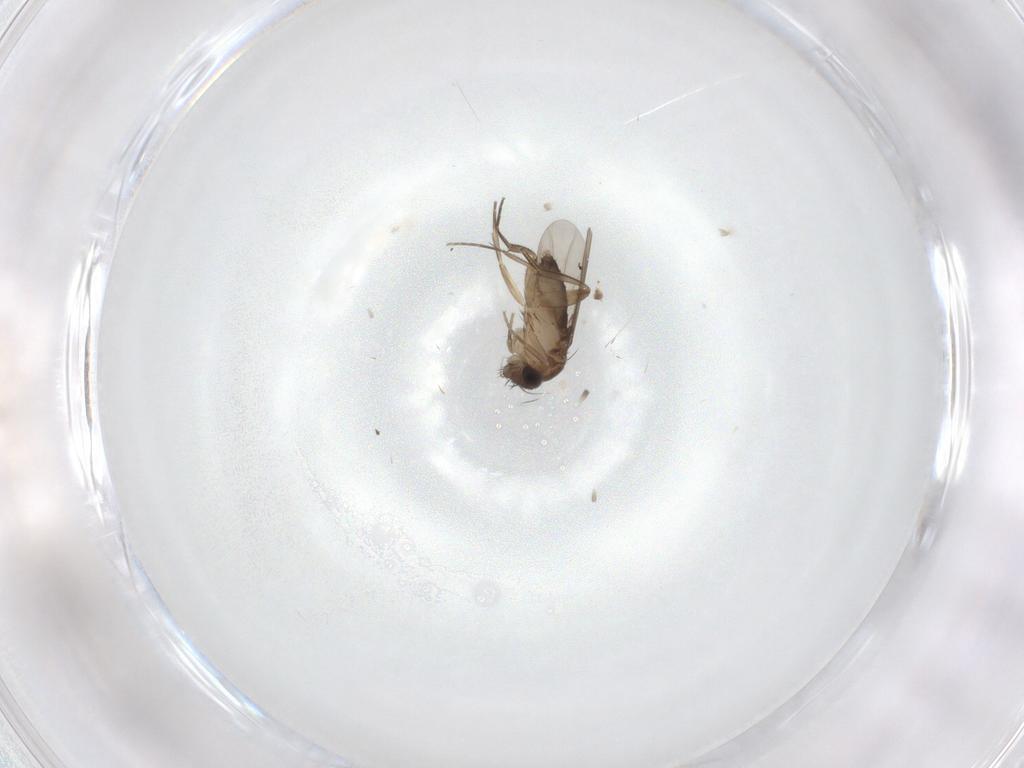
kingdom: Animalia
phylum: Arthropoda
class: Insecta
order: Diptera
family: Phoridae
